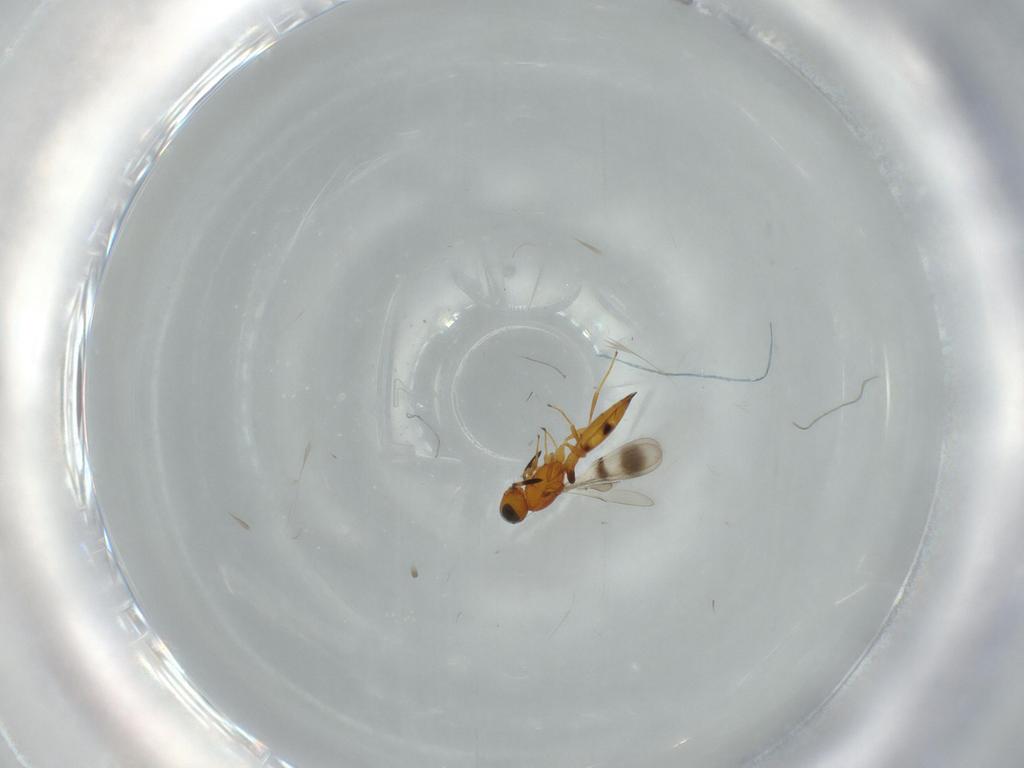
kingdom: Animalia
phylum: Arthropoda
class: Insecta
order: Hymenoptera
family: Scelionidae
